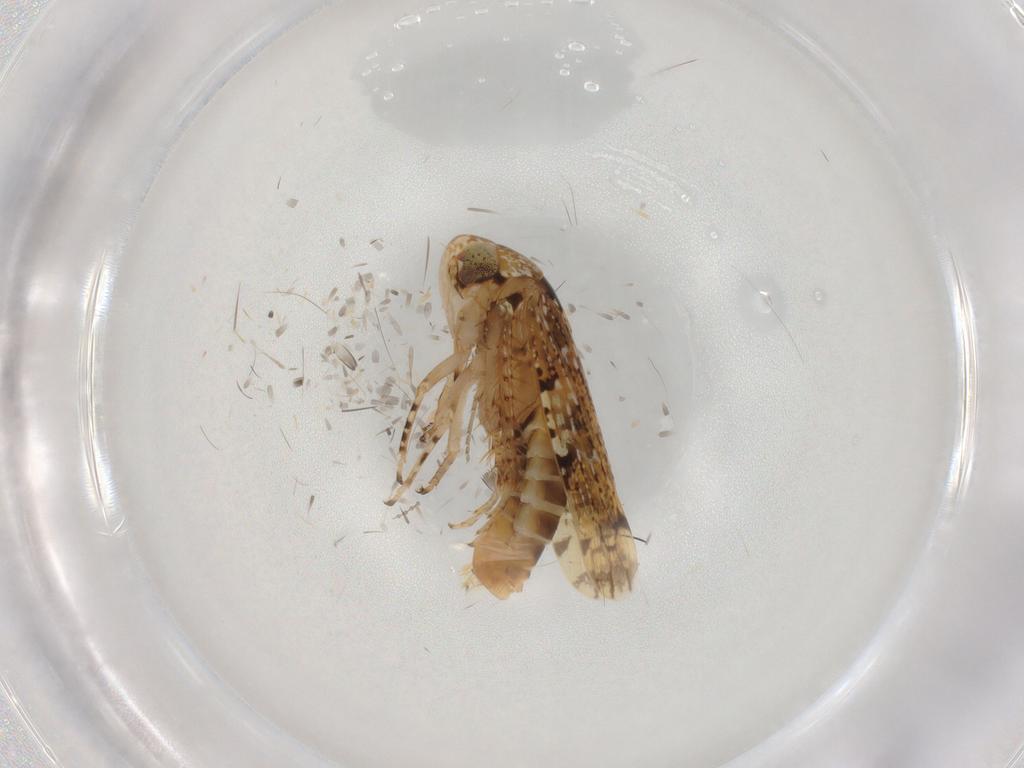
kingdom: Animalia
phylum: Arthropoda
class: Insecta
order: Hemiptera
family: Cicadellidae
